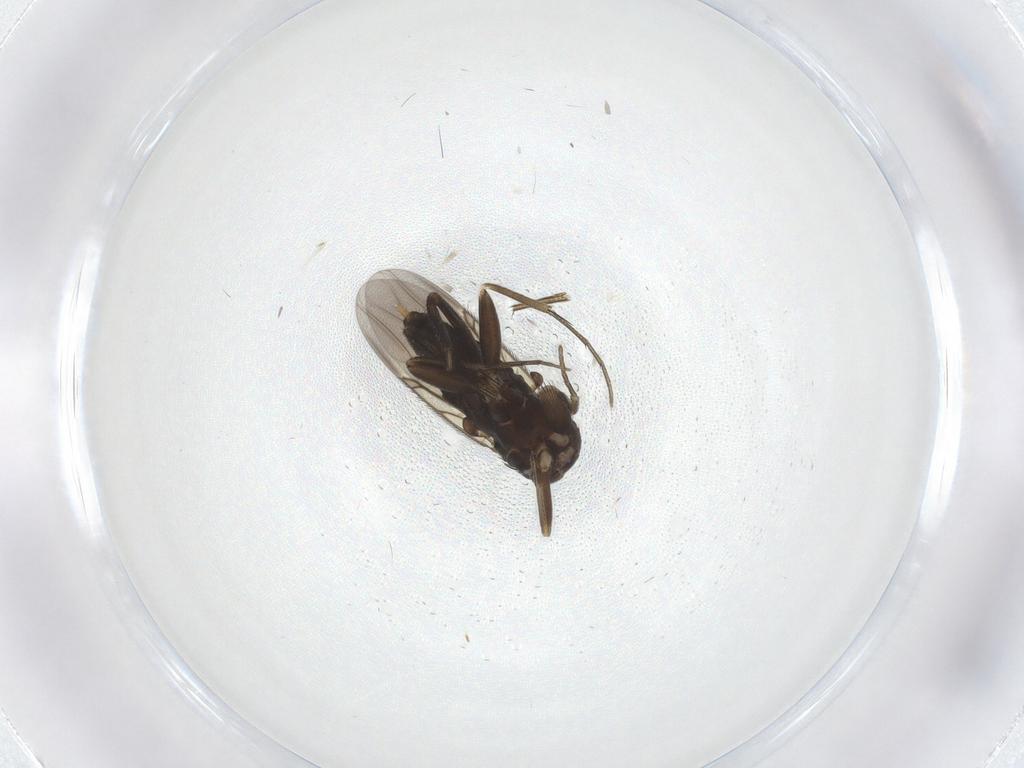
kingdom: Animalia
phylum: Arthropoda
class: Insecta
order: Diptera
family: Phoridae
